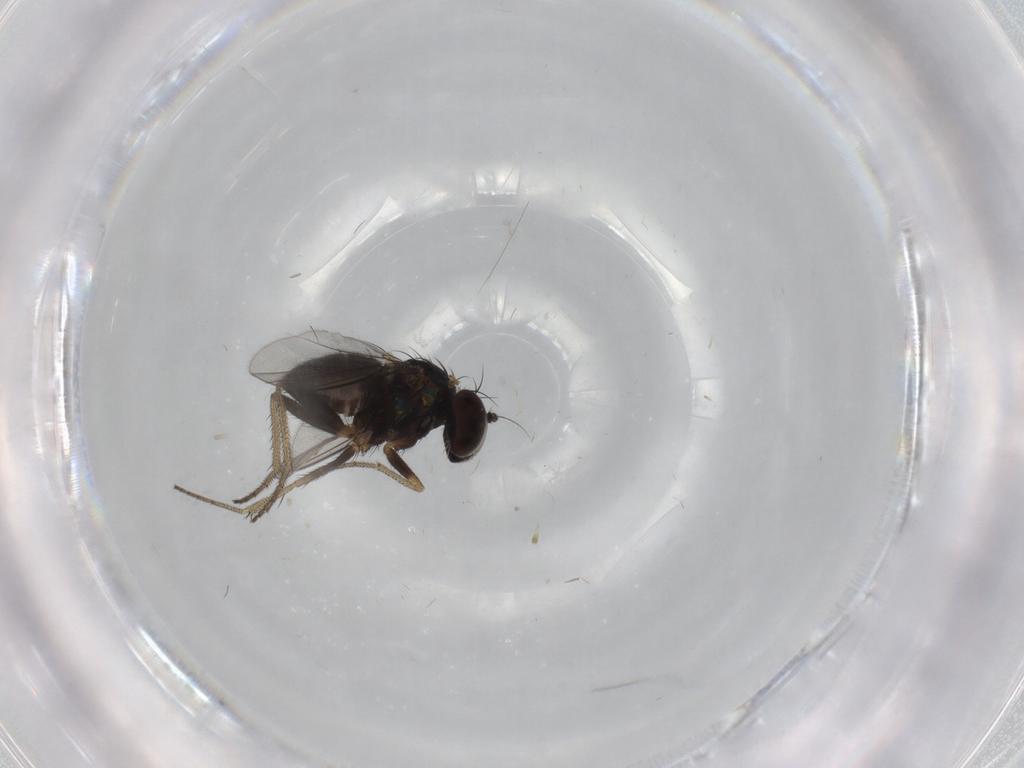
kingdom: Animalia
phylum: Arthropoda
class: Insecta
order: Diptera
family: Psychodidae
